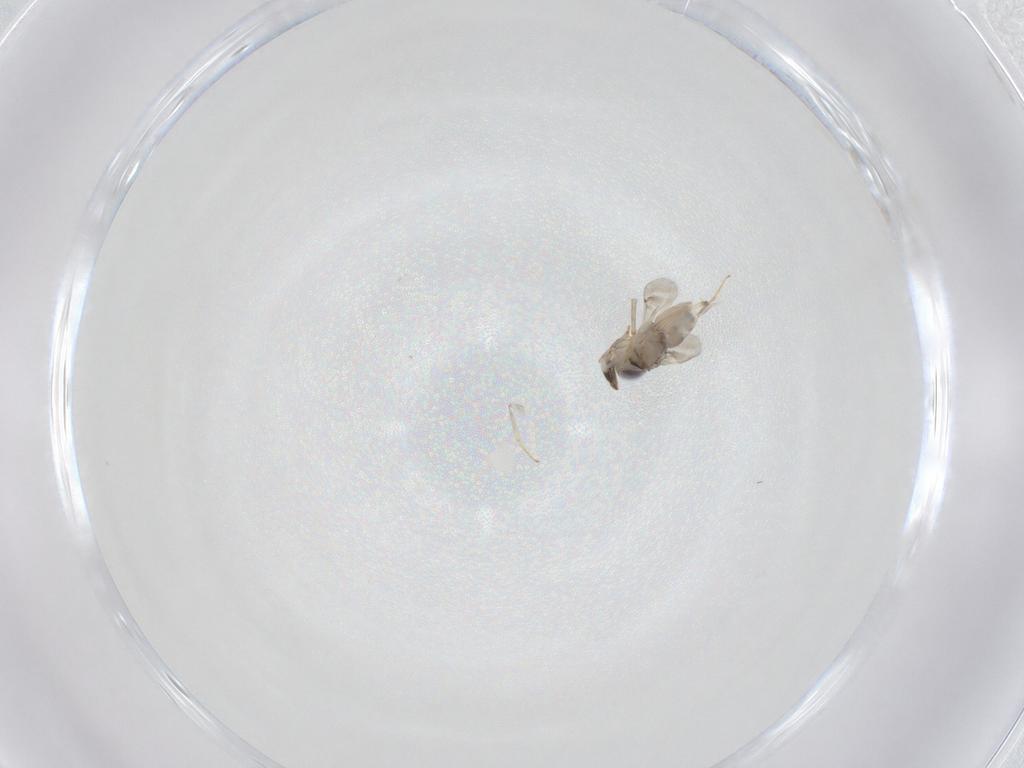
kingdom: Animalia
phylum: Arthropoda
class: Insecta
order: Hymenoptera
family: Encyrtidae
